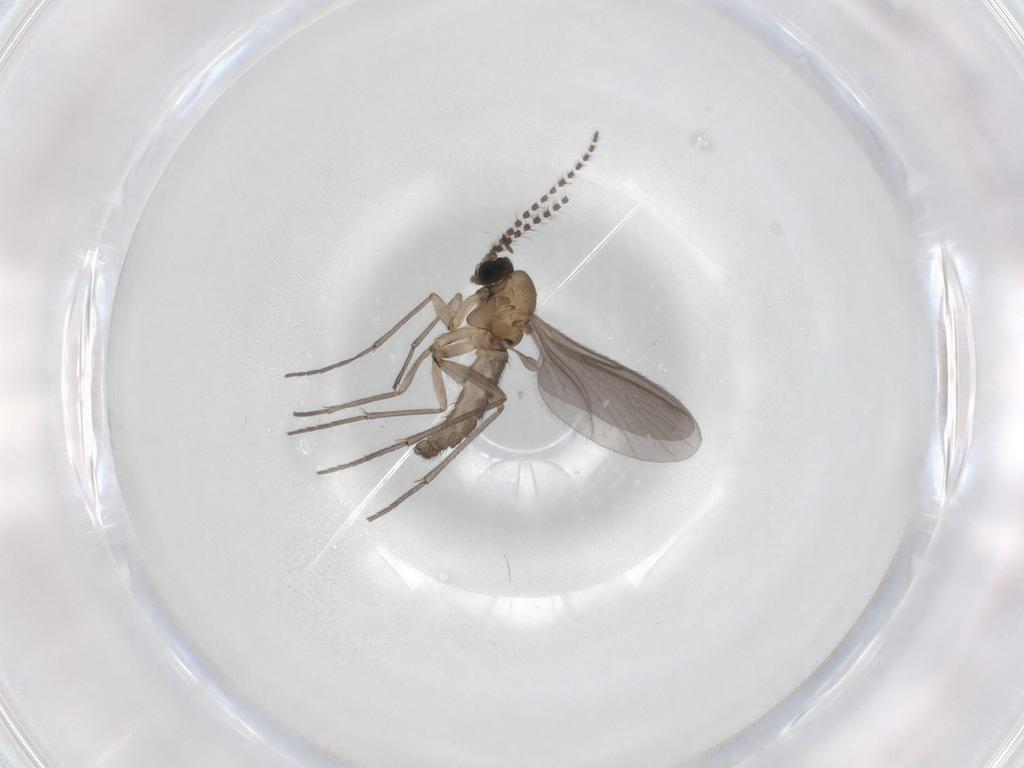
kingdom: Animalia
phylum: Arthropoda
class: Insecta
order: Diptera
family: Sciaridae
